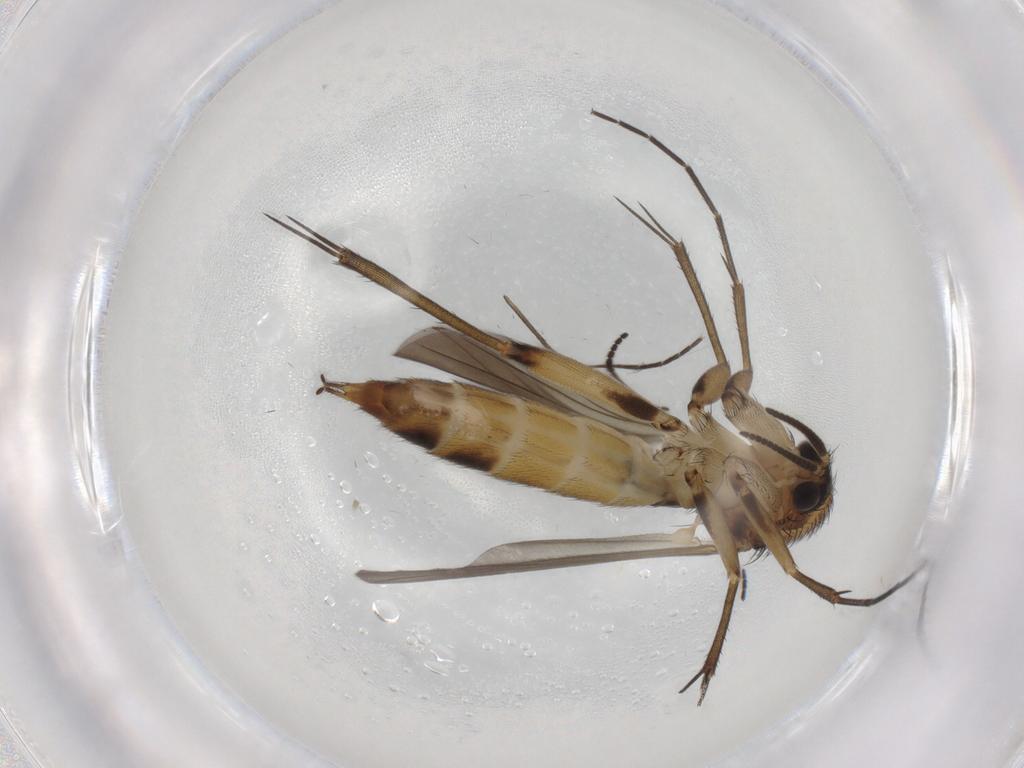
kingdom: Animalia
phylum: Arthropoda
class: Insecta
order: Diptera
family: Mycetophilidae
